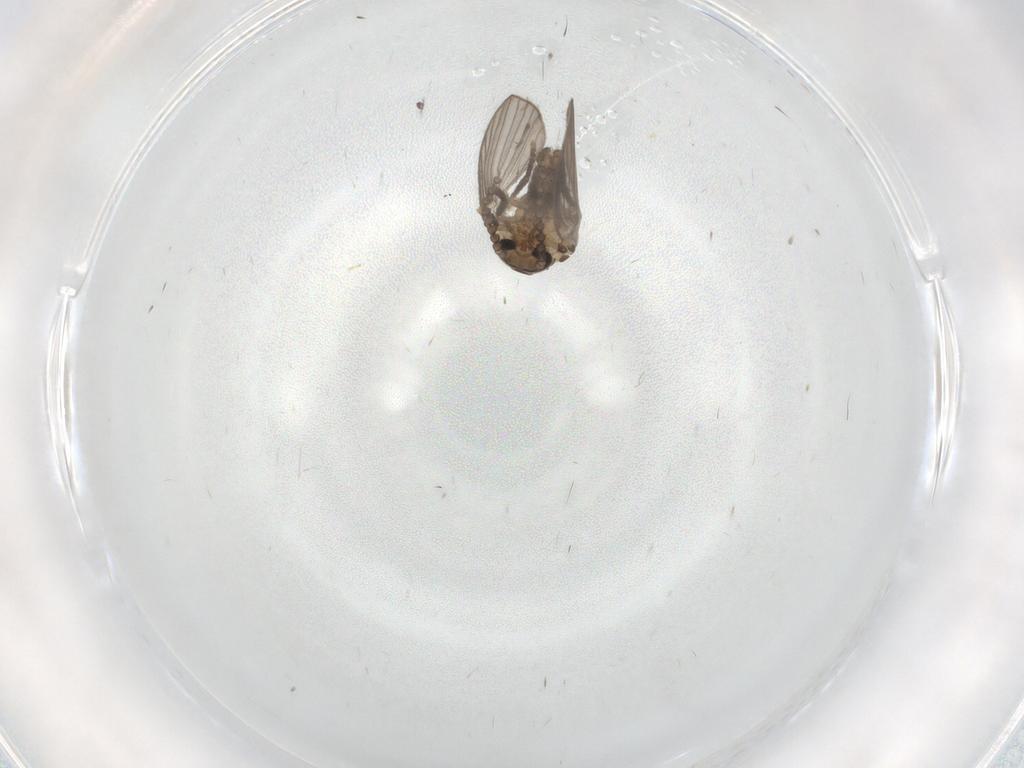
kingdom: Animalia
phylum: Arthropoda
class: Insecta
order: Diptera
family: Psychodidae
